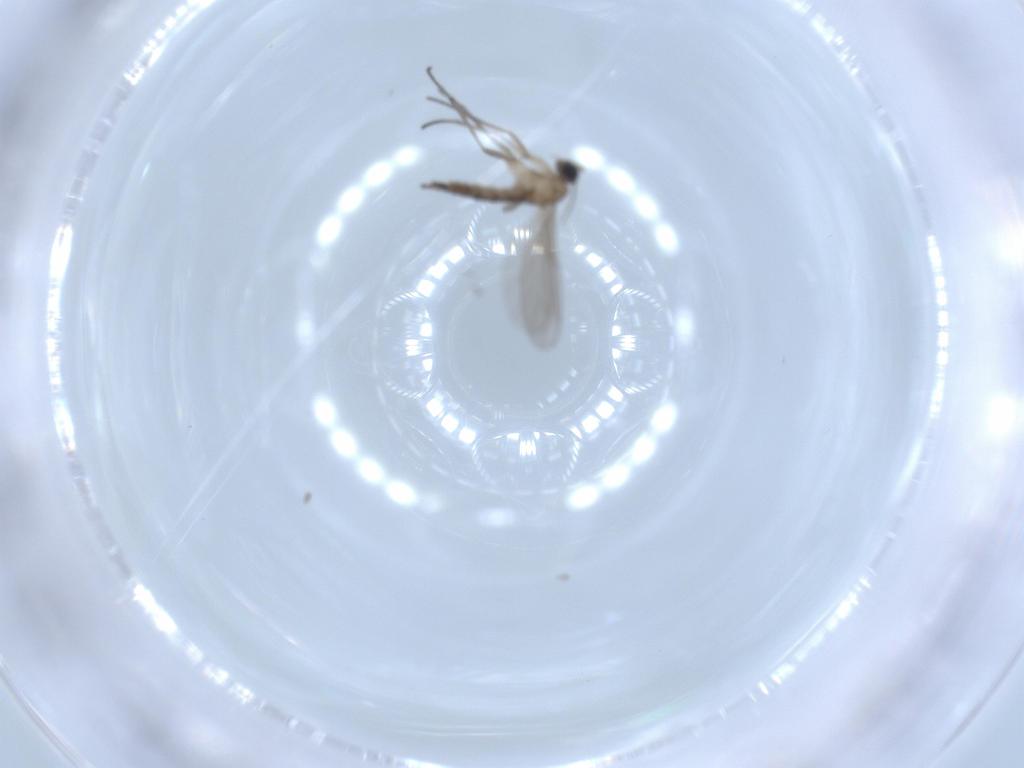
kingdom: Animalia
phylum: Arthropoda
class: Insecta
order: Diptera
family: Sciaridae
